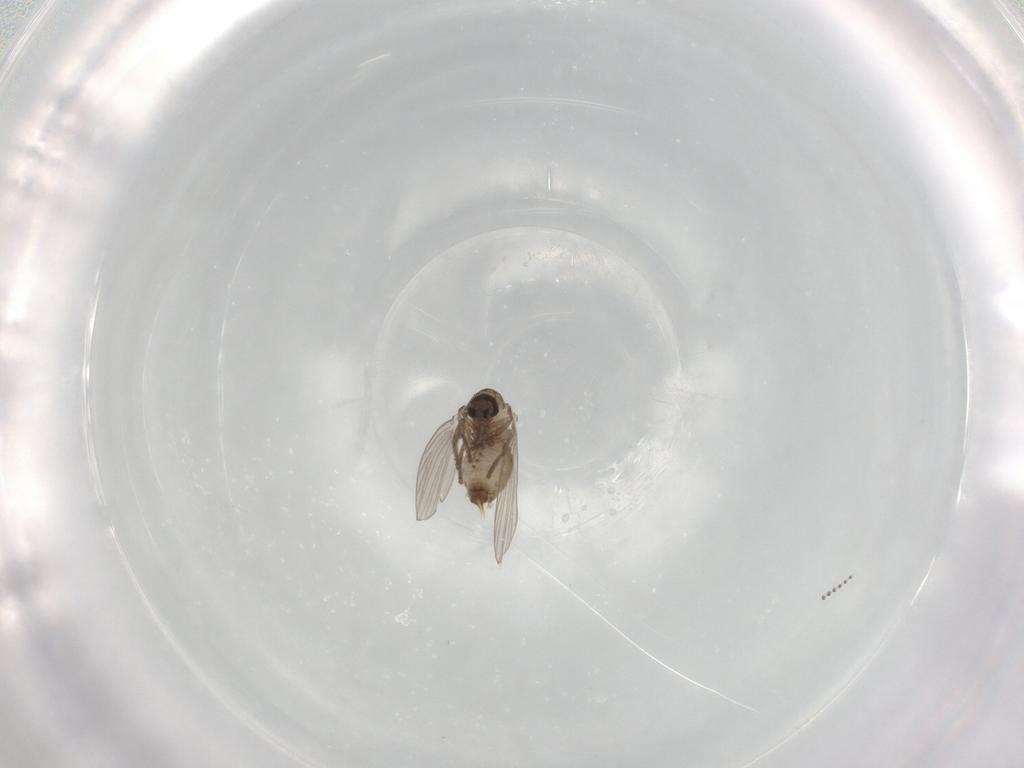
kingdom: Animalia
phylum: Arthropoda
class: Insecta
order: Diptera
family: Psychodidae
